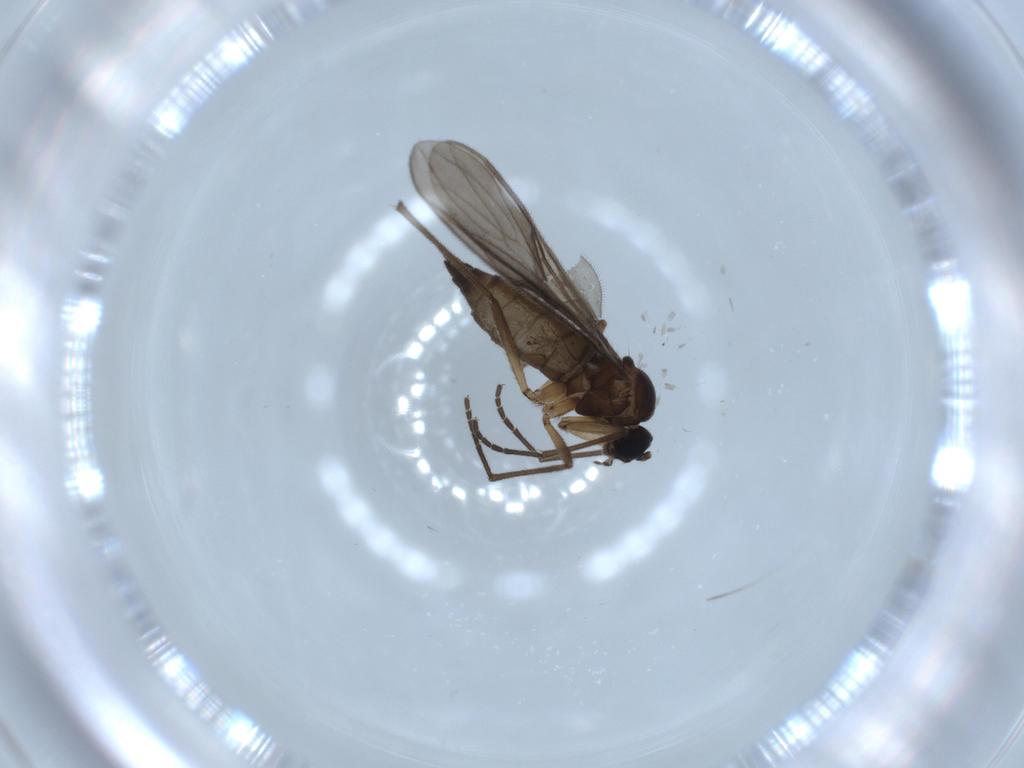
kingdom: Animalia
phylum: Arthropoda
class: Insecta
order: Diptera
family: Sciaridae
